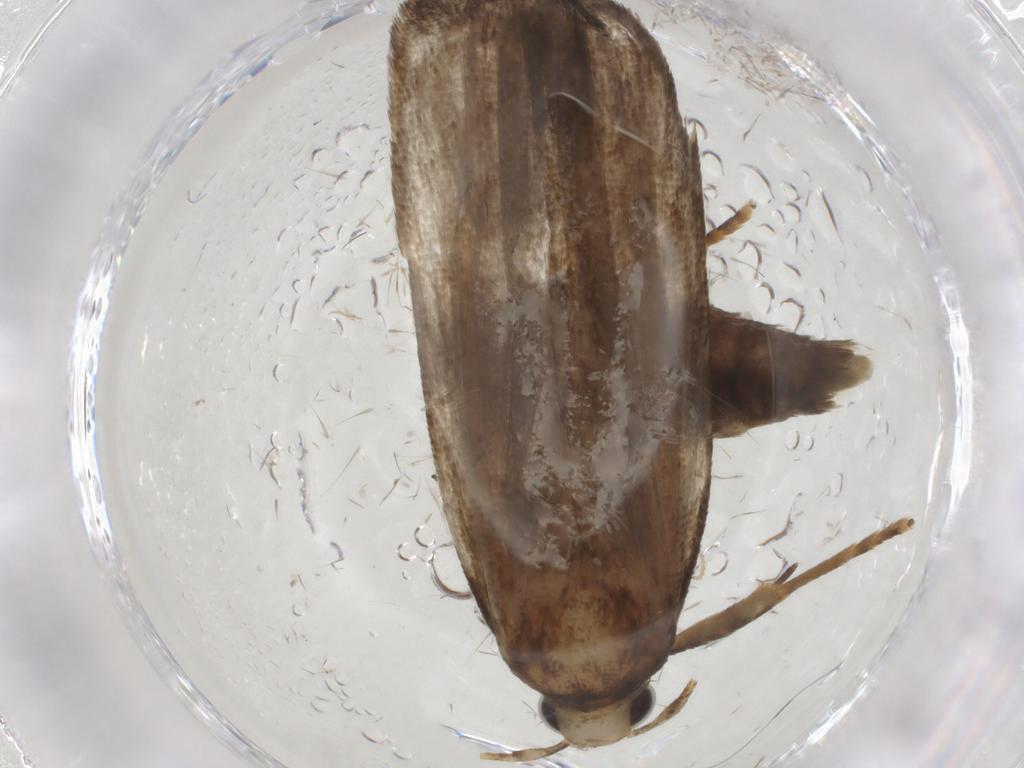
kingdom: Animalia
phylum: Arthropoda
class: Insecta
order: Lepidoptera
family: Autostichidae
